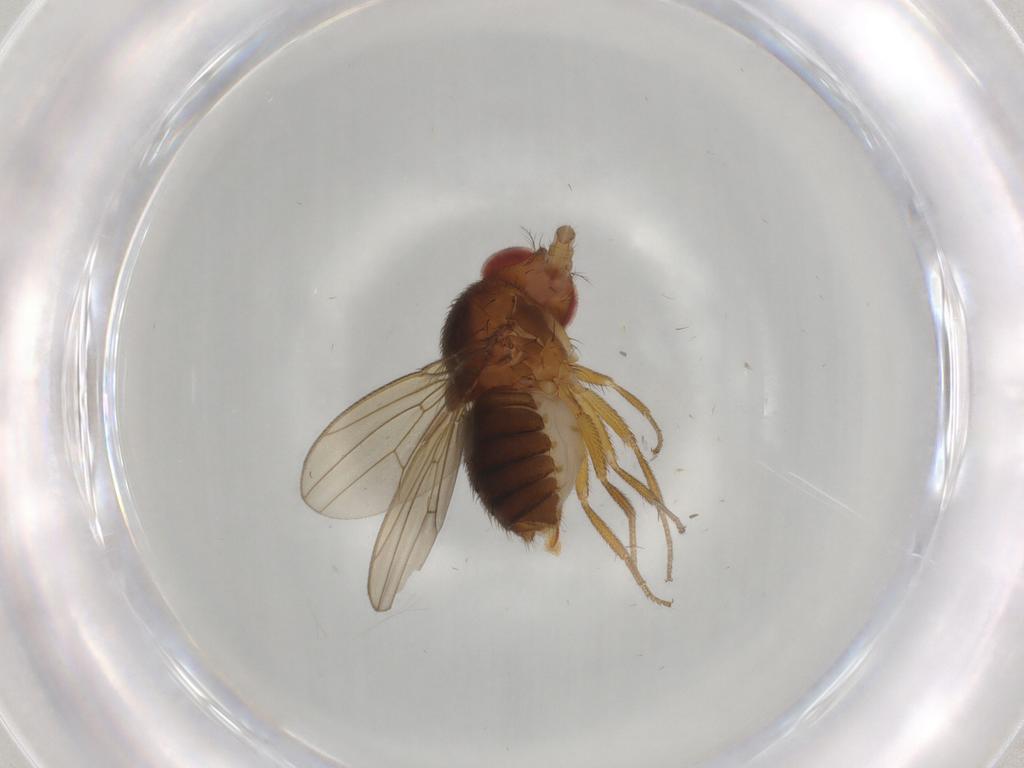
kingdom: Animalia
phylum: Arthropoda
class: Insecta
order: Diptera
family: Drosophilidae
